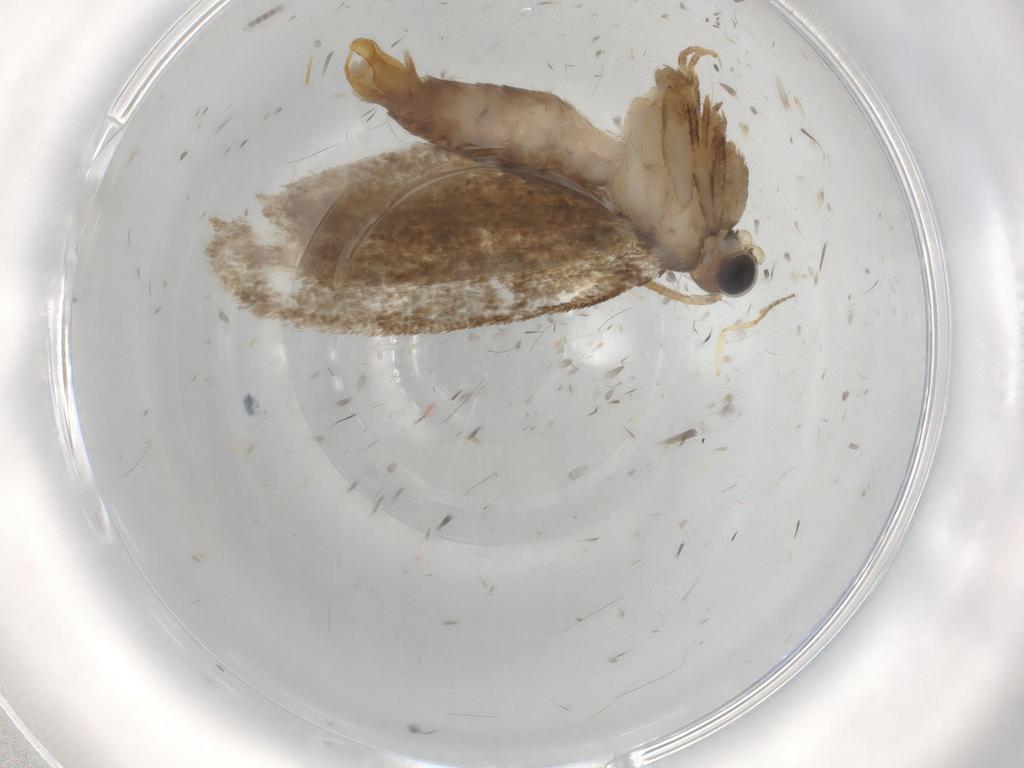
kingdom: Animalia
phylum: Arthropoda
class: Insecta
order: Lepidoptera
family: Tineidae
